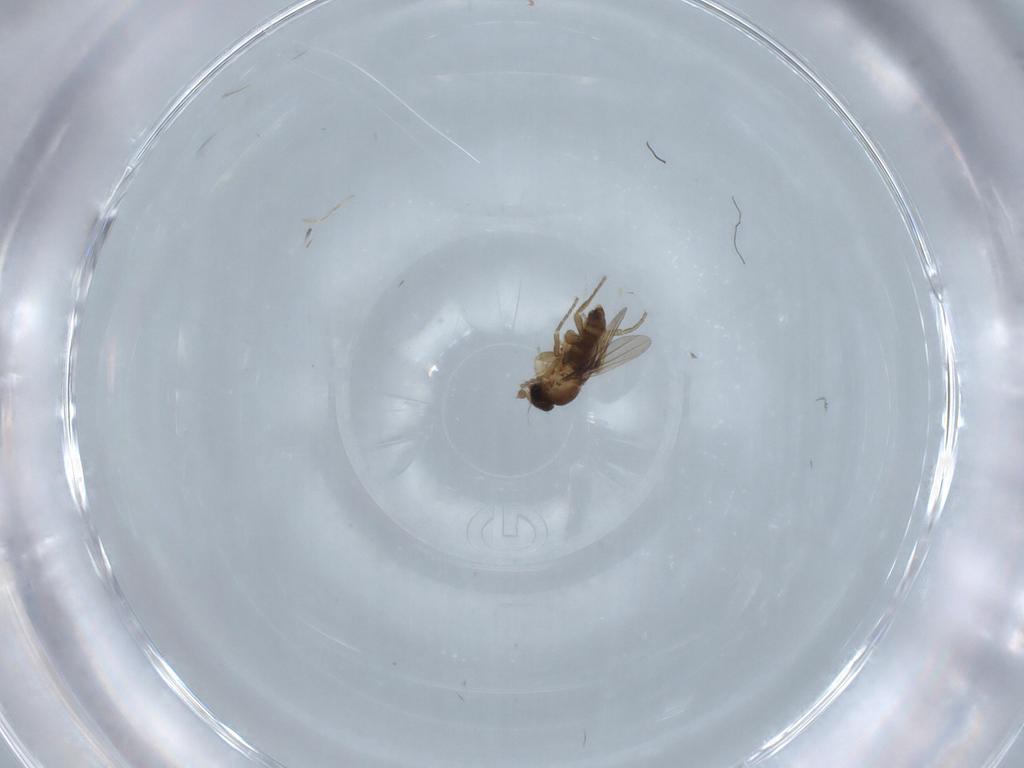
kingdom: Animalia
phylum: Arthropoda
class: Insecta
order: Diptera
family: Phoridae
